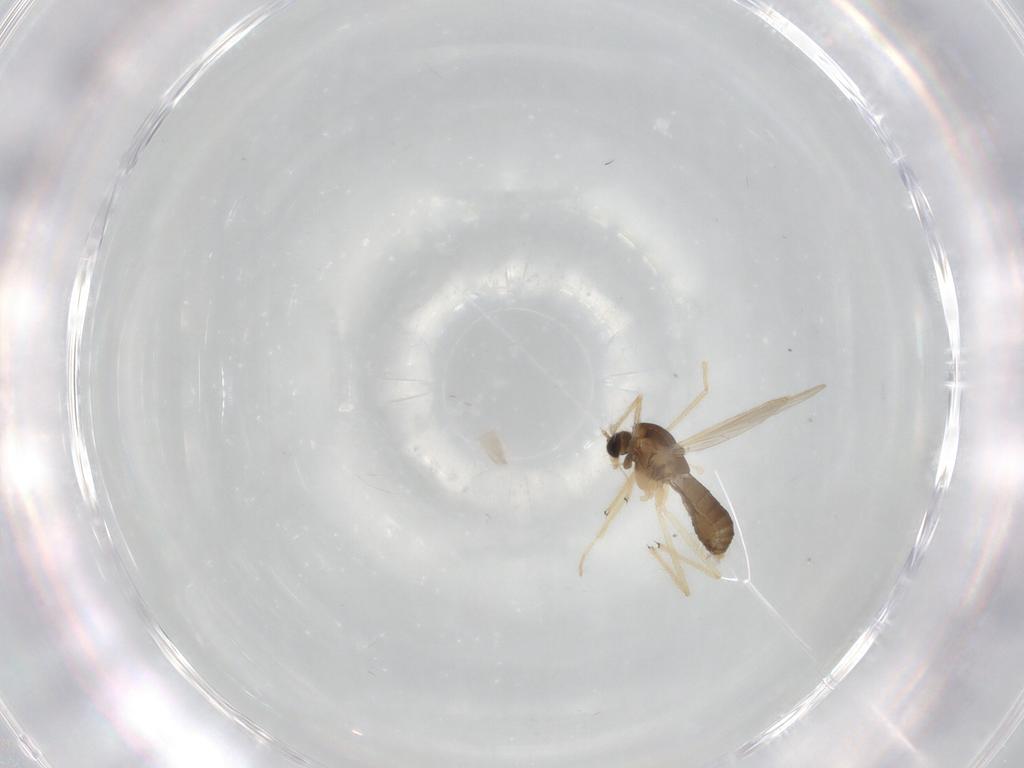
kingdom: Animalia
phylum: Arthropoda
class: Insecta
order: Diptera
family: Chironomidae
